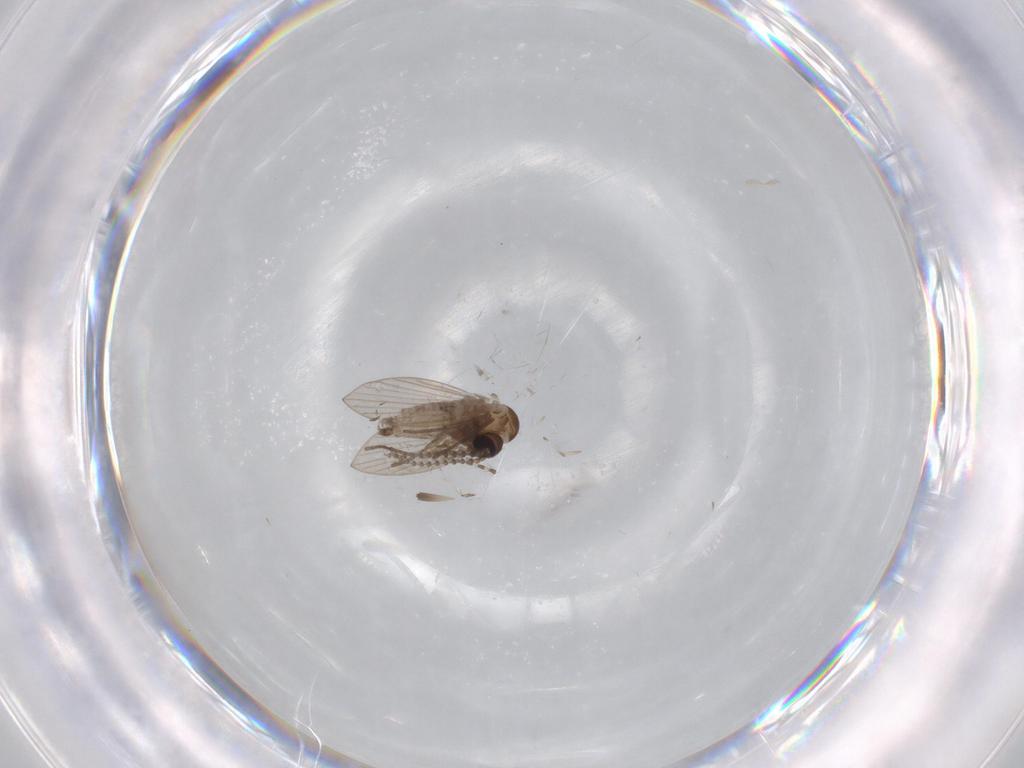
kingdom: Animalia
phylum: Arthropoda
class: Insecta
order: Diptera
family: Psychodidae
